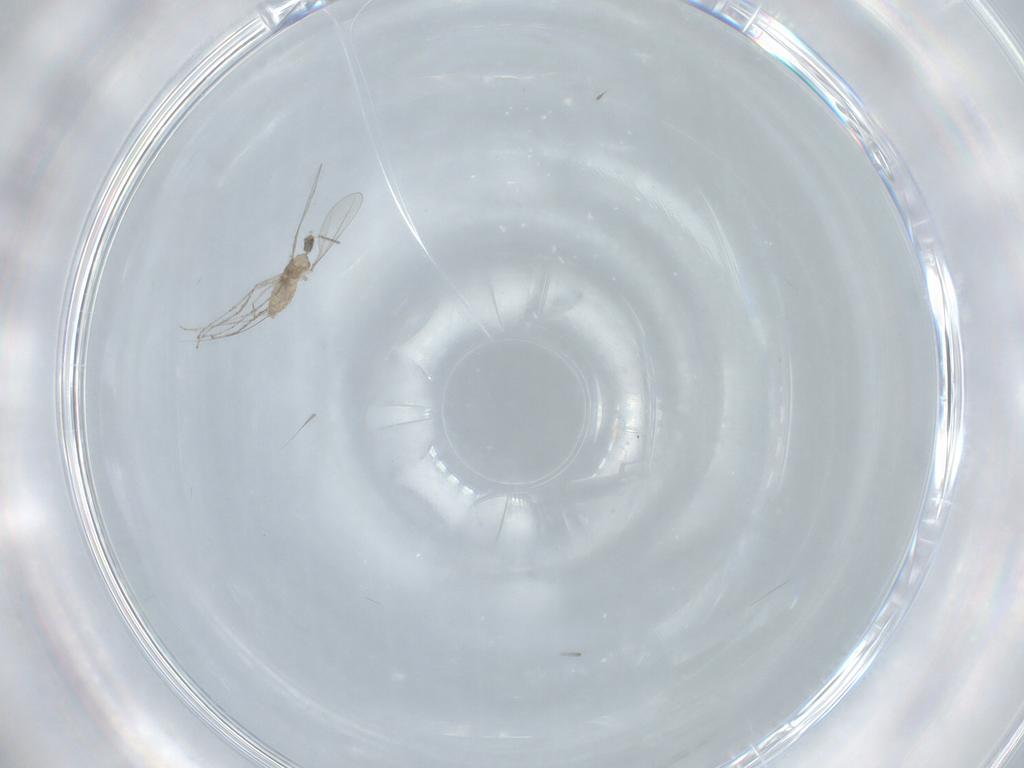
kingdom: Animalia
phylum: Arthropoda
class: Insecta
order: Diptera
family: Cecidomyiidae
